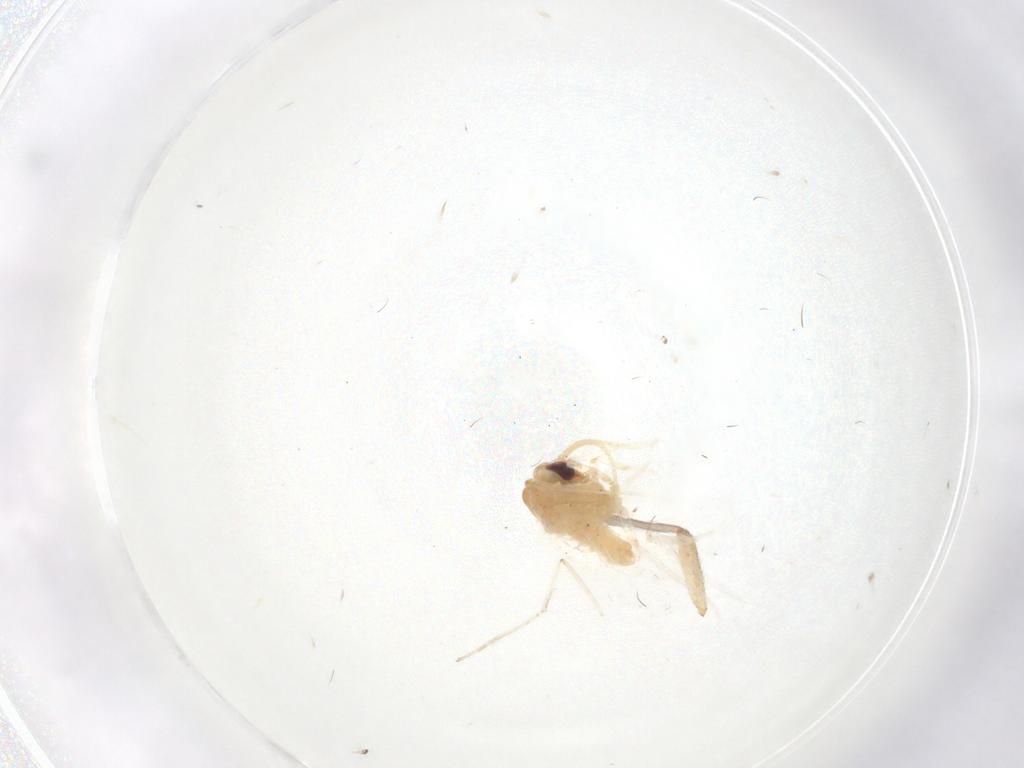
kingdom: Animalia
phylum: Arthropoda
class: Insecta
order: Neuroptera
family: Coniopterygidae
